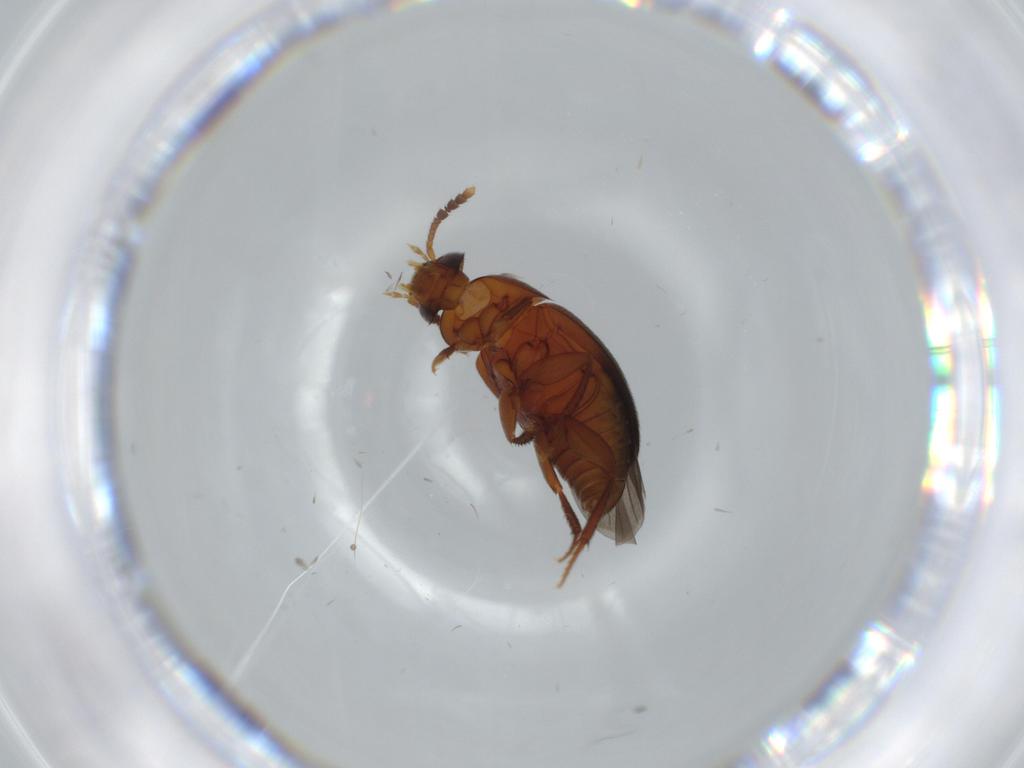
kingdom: Animalia
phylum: Arthropoda
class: Insecta
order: Coleoptera
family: Leiodidae
